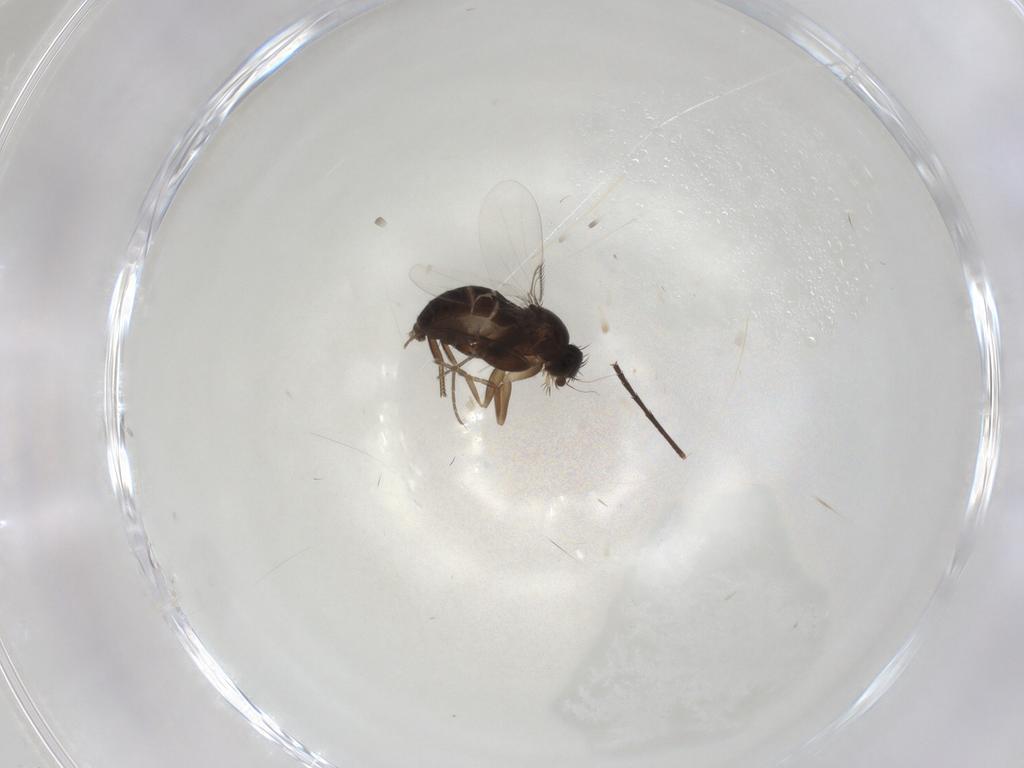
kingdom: Animalia
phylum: Arthropoda
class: Insecta
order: Diptera
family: Phoridae
